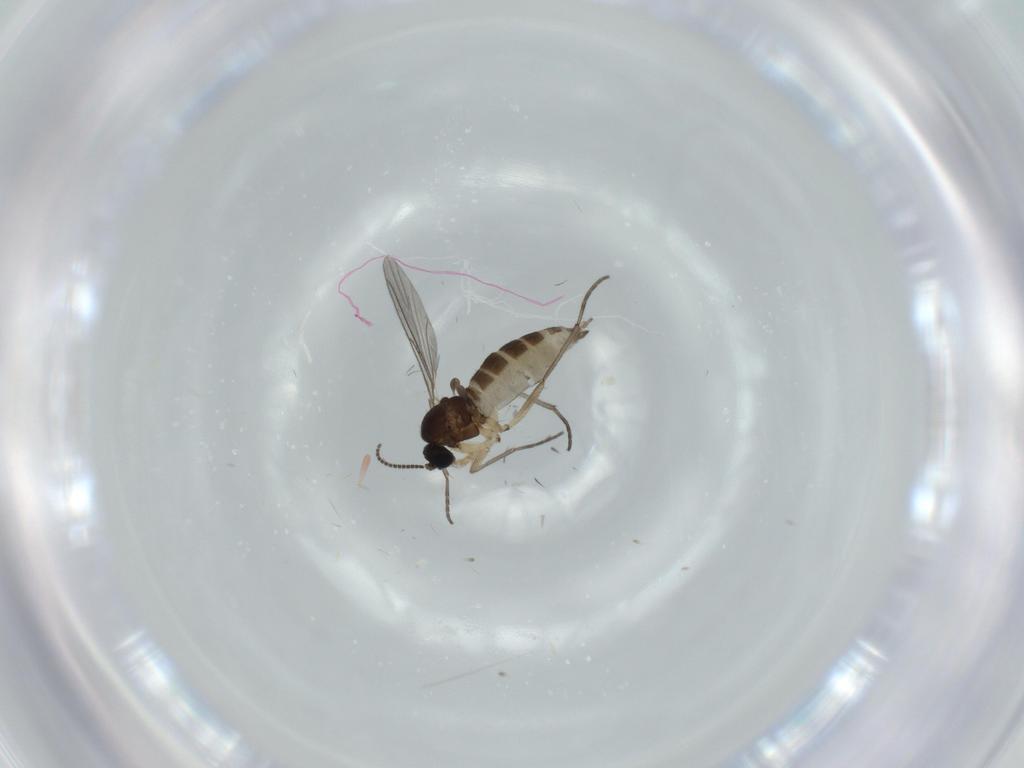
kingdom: Animalia
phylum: Arthropoda
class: Insecta
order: Diptera
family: Sciaridae
